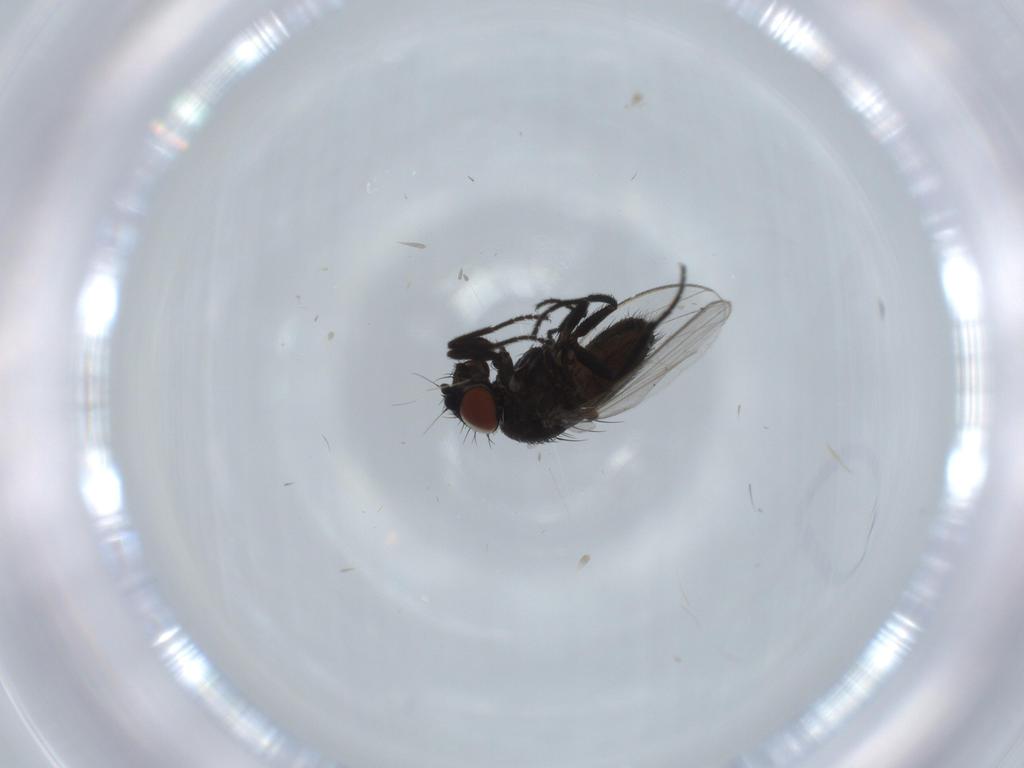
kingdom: Animalia
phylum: Arthropoda
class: Insecta
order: Diptera
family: Milichiidae
